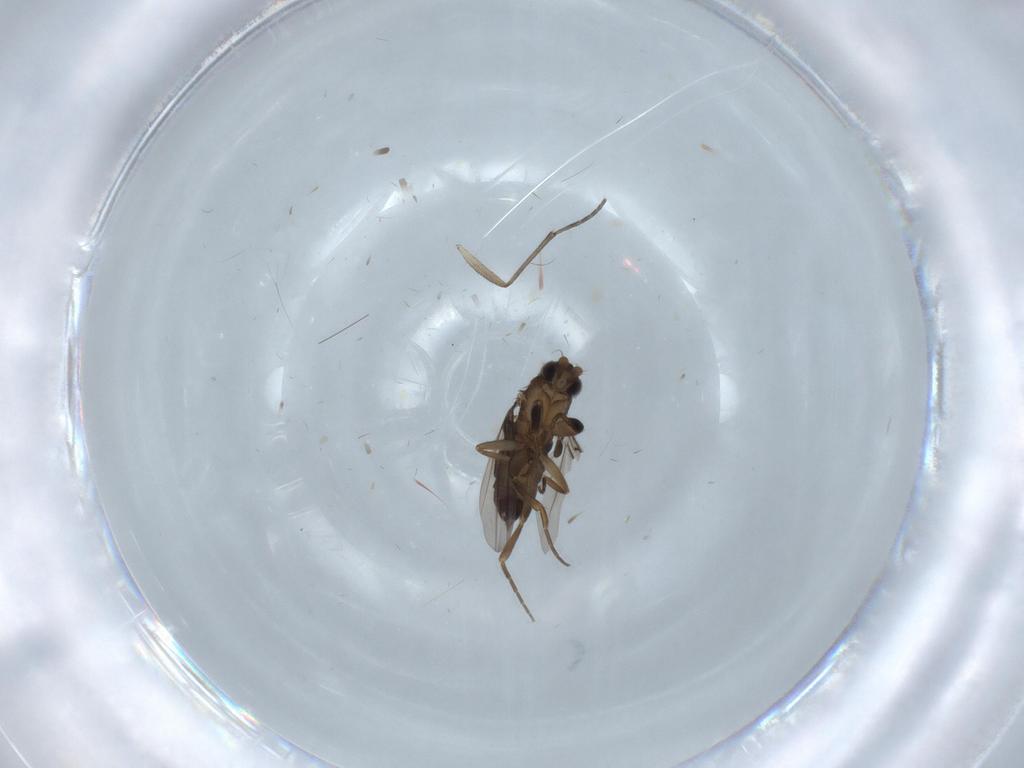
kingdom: Animalia
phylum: Arthropoda
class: Insecta
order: Diptera
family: Phoridae
